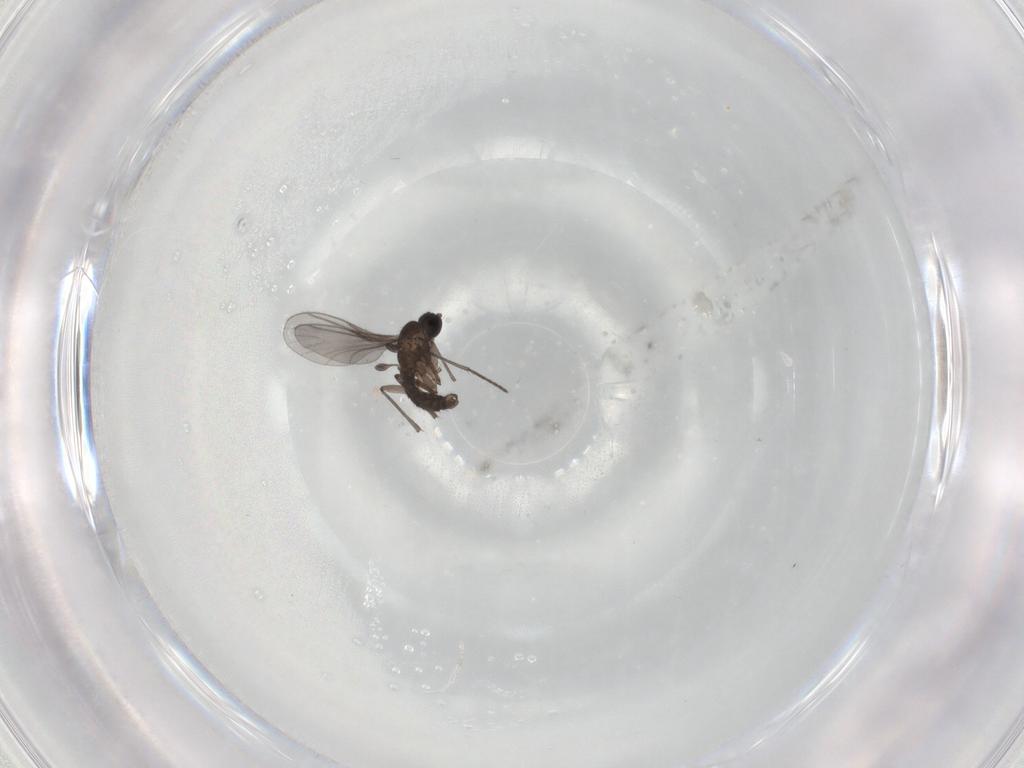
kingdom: Animalia
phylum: Arthropoda
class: Insecta
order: Diptera
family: Chironomidae
